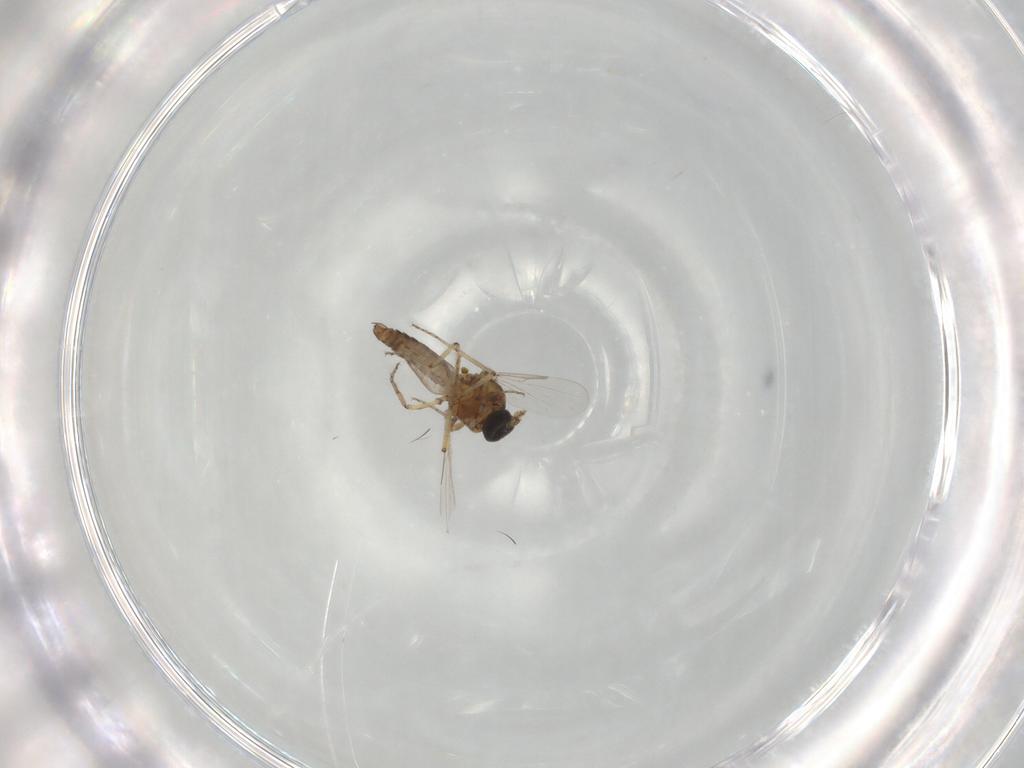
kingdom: Animalia
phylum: Arthropoda
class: Insecta
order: Diptera
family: Ceratopogonidae
